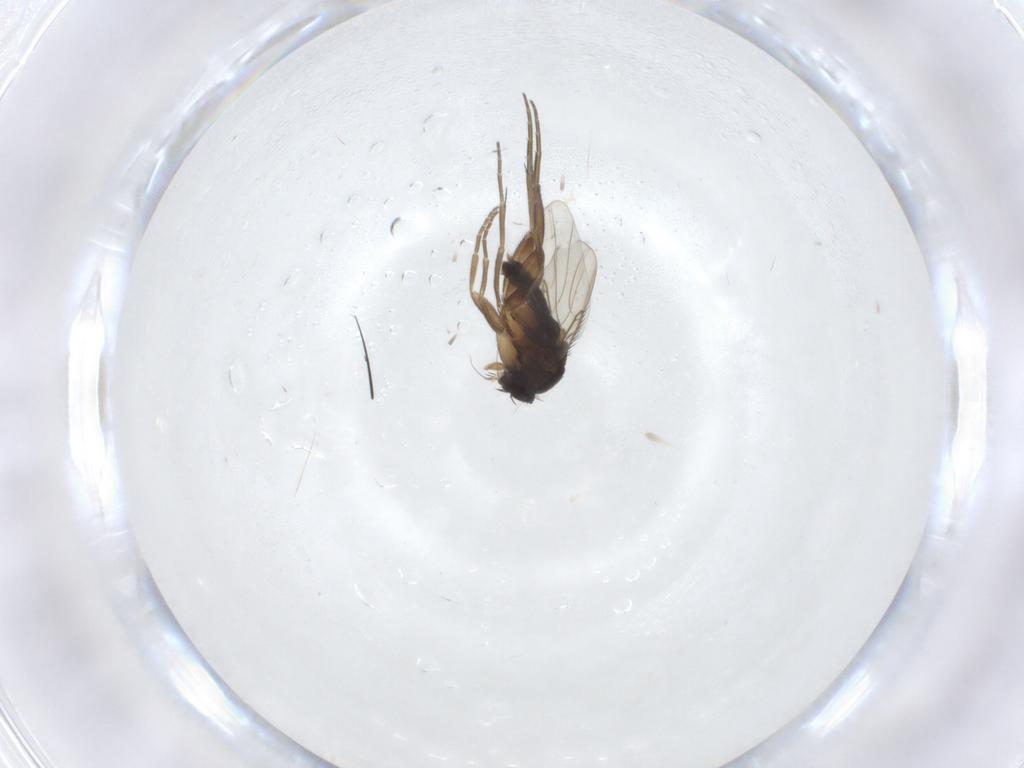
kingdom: Animalia
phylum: Arthropoda
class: Insecta
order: Diptera
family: Phoridae
